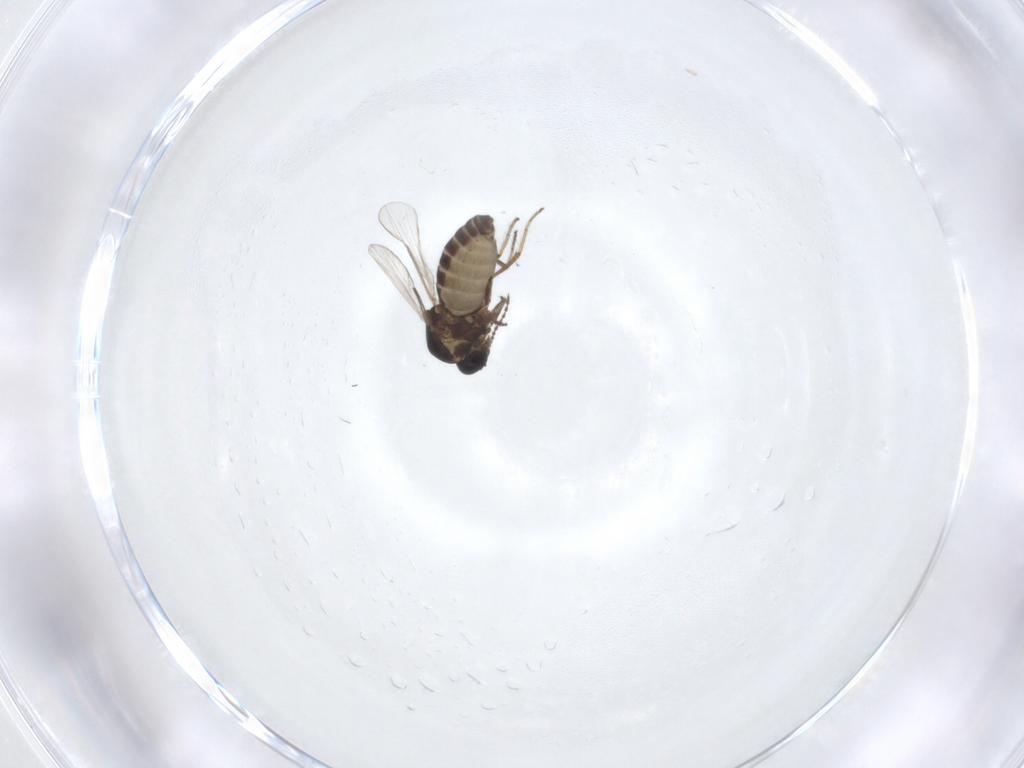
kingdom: Animalia
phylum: Arthropoda
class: Insecta
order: Diptera
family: Ceratopogonidae
